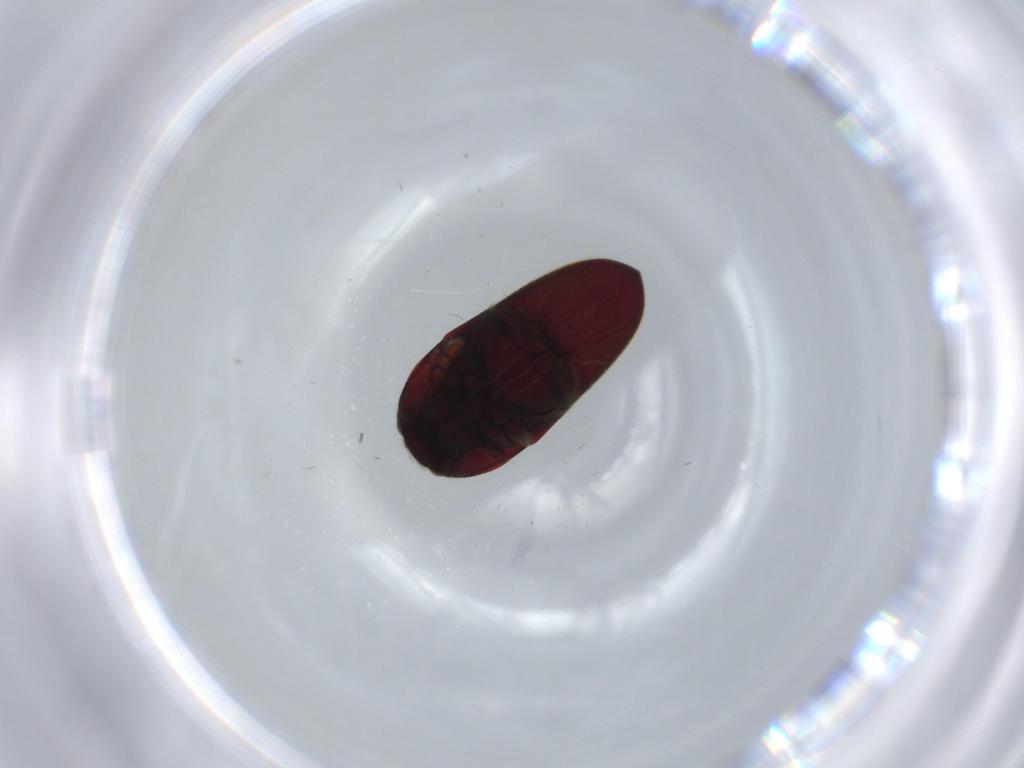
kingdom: Animalia
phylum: Arthropoda
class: Insecta
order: Coleoptera
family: Throscidae
